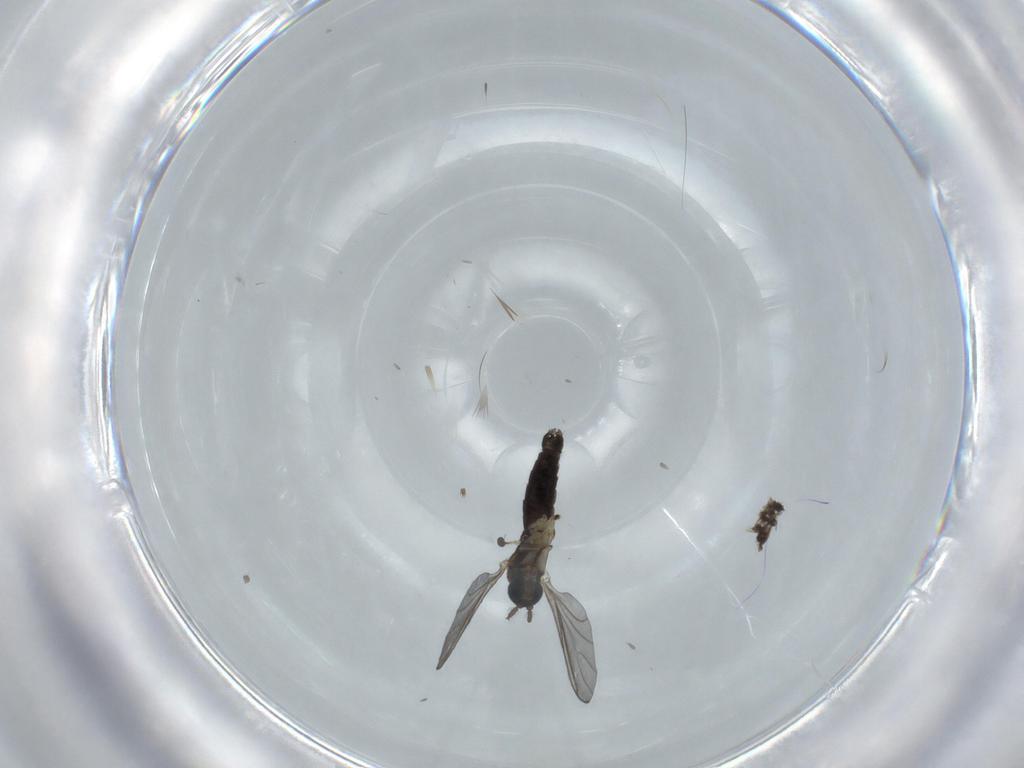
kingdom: Animalia
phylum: Arthropoda
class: Insecta
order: Diptera
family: Cecidomyiidae
